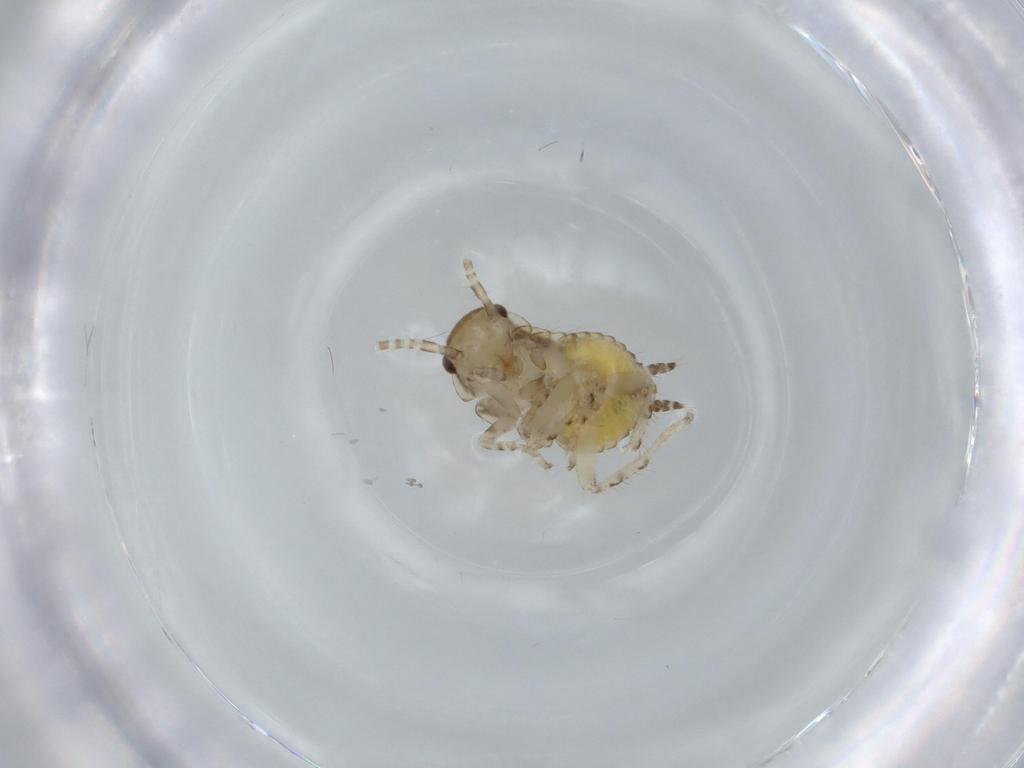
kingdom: Animalia
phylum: Arthropoda
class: Insecta
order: Blattodea
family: Ectobiidae
